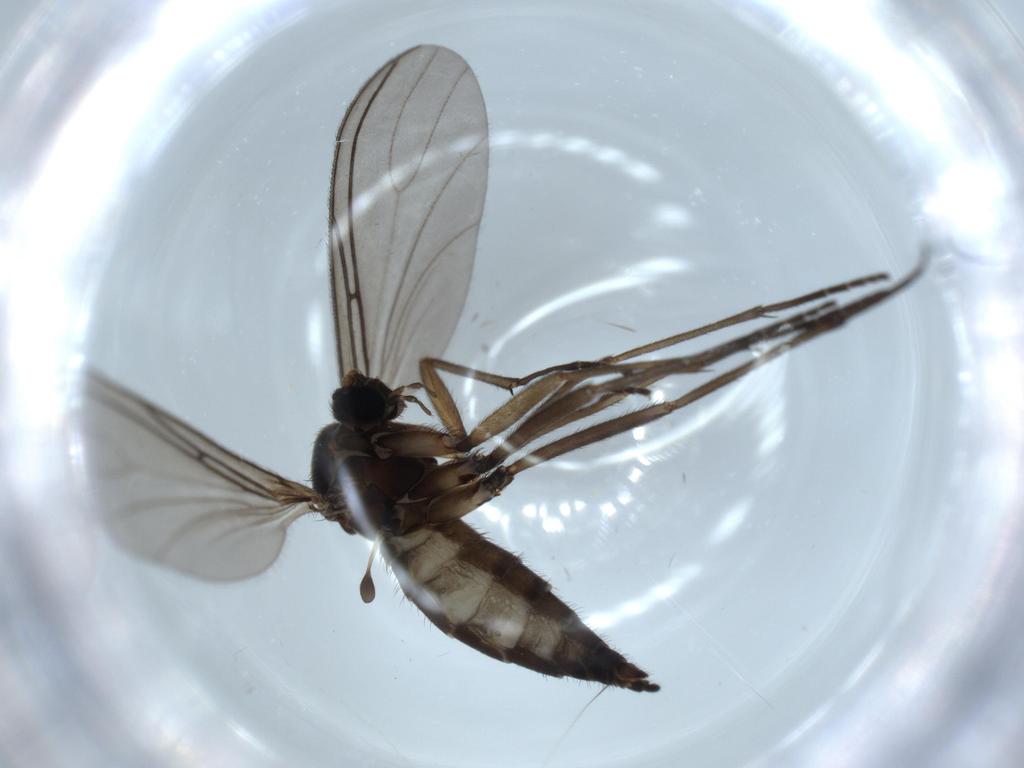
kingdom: Animalia
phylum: Arthropoda
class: Insecta
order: Diptera
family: Sciaridae
